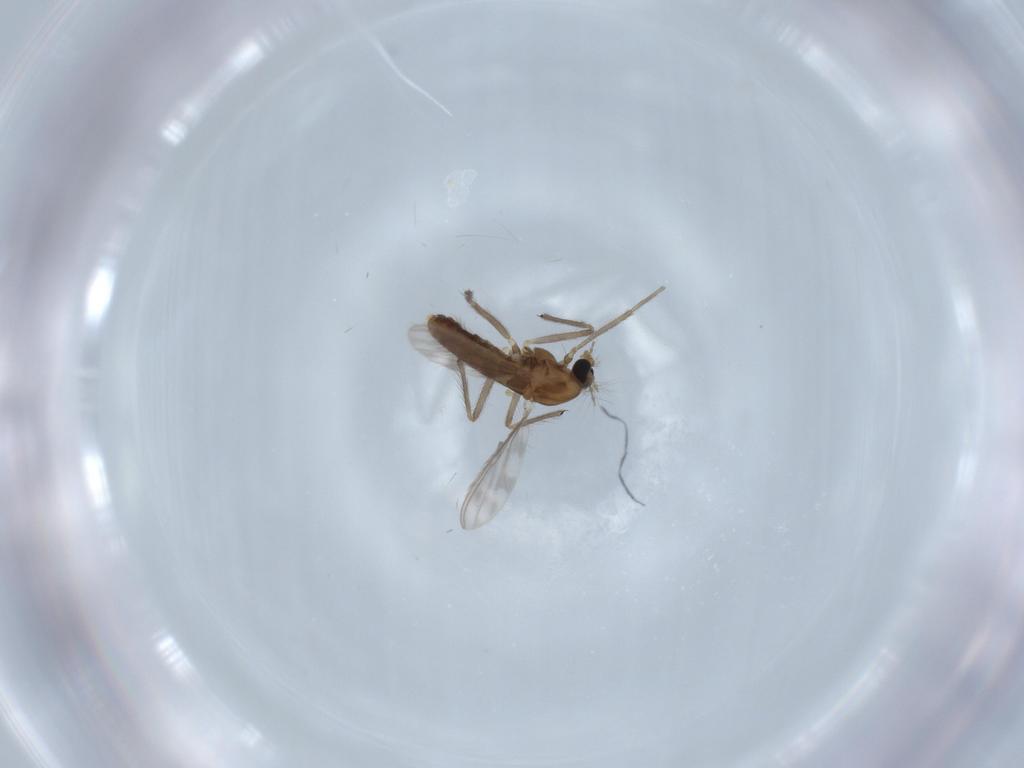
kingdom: Animalia
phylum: Arthropoda
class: Insecta
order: Diptera
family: Chironomidae
